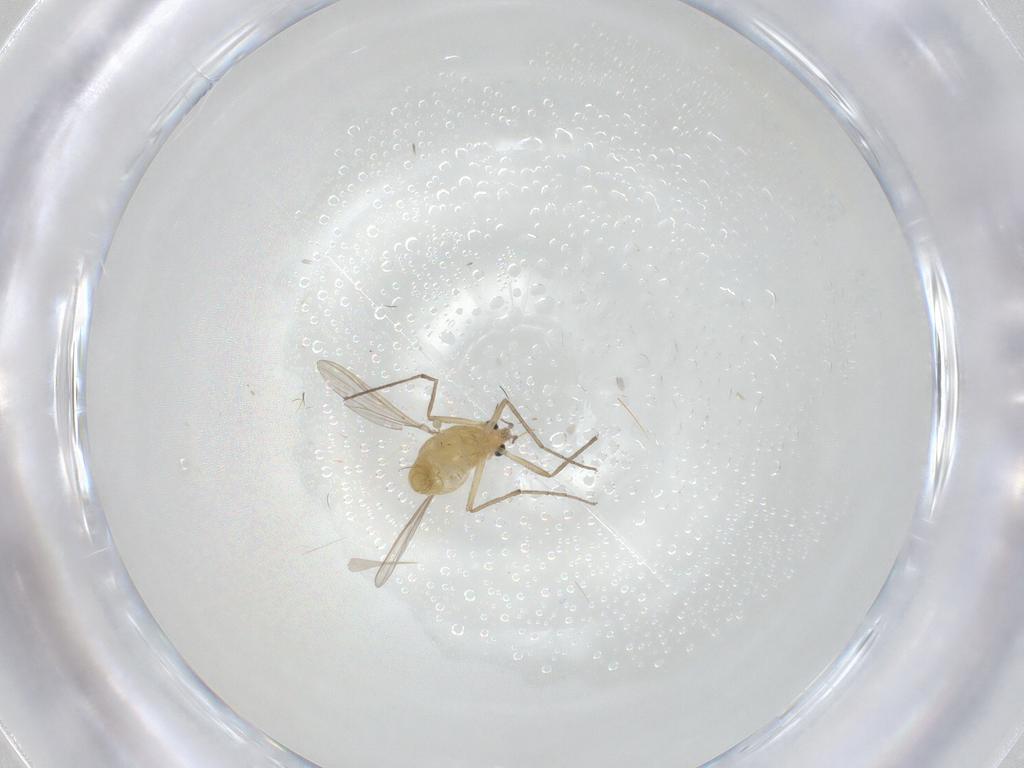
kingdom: Animalia
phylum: Arthropoda
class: Insecta
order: Diptera
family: Chironomidae
